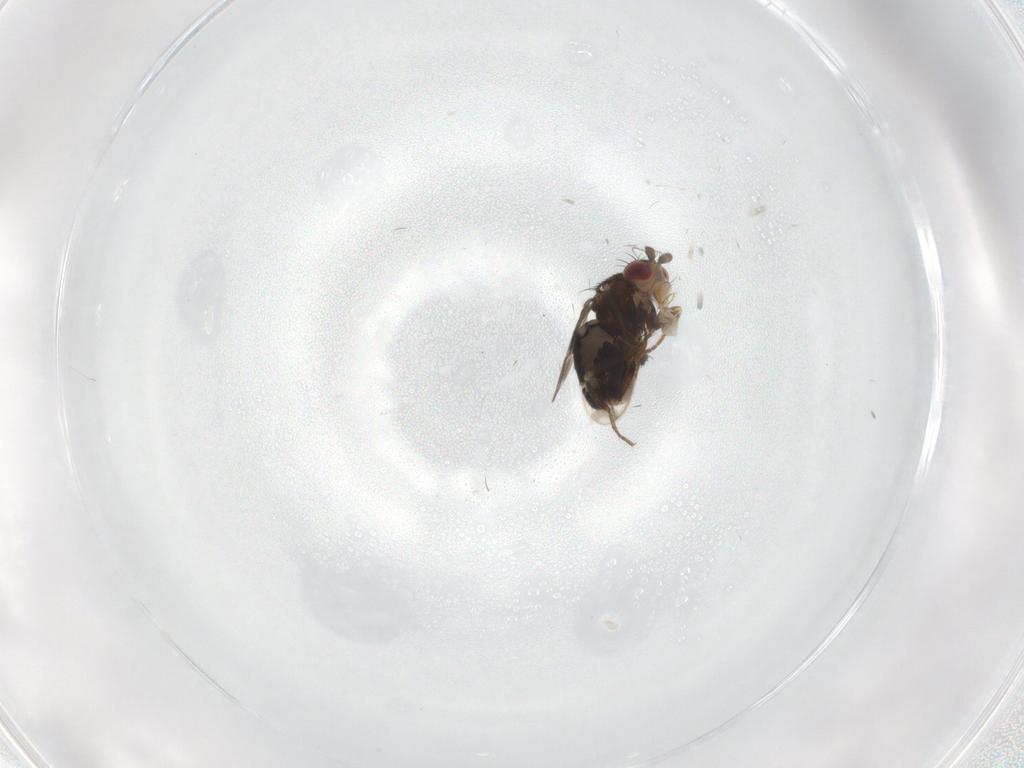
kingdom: Animalia
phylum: Arthropoda
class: Insecta
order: Diptera
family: Sphaeroceridae
